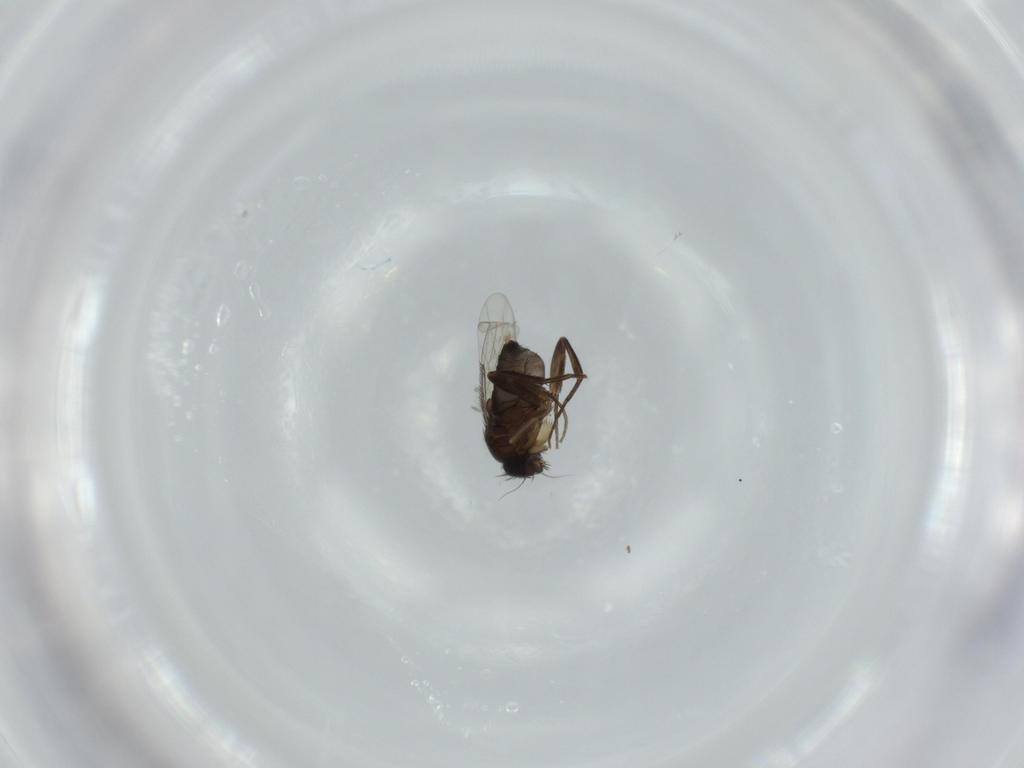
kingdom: Animalia
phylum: Arthropoda
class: Insecta
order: Diptera
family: Phoridae
